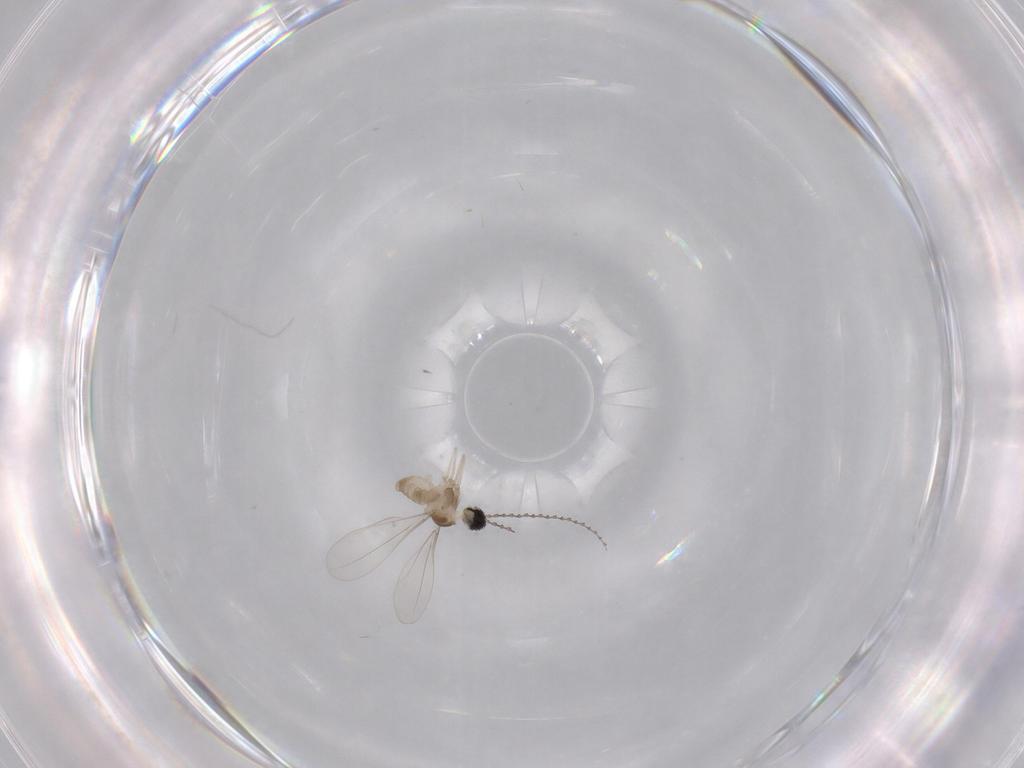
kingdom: Animalia
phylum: Arthropoda
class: Insecta
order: Diptera
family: Cecidomyiidae
